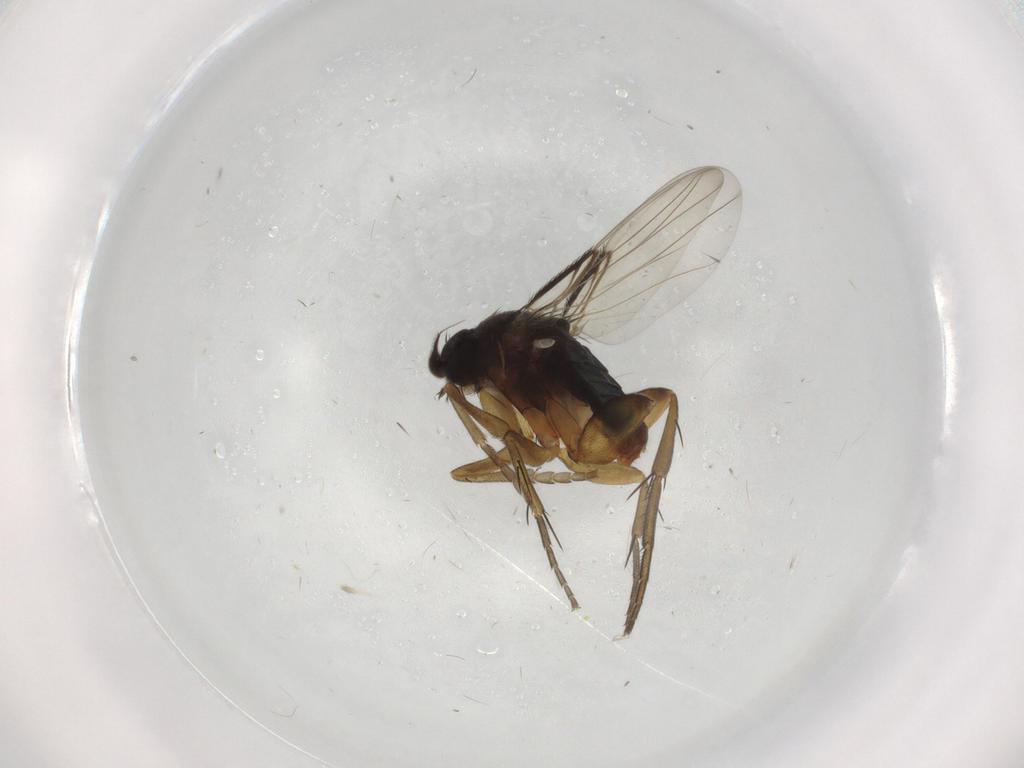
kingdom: Animalia
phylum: Arthropoda
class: Insecta
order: Diptera
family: Phoridae
